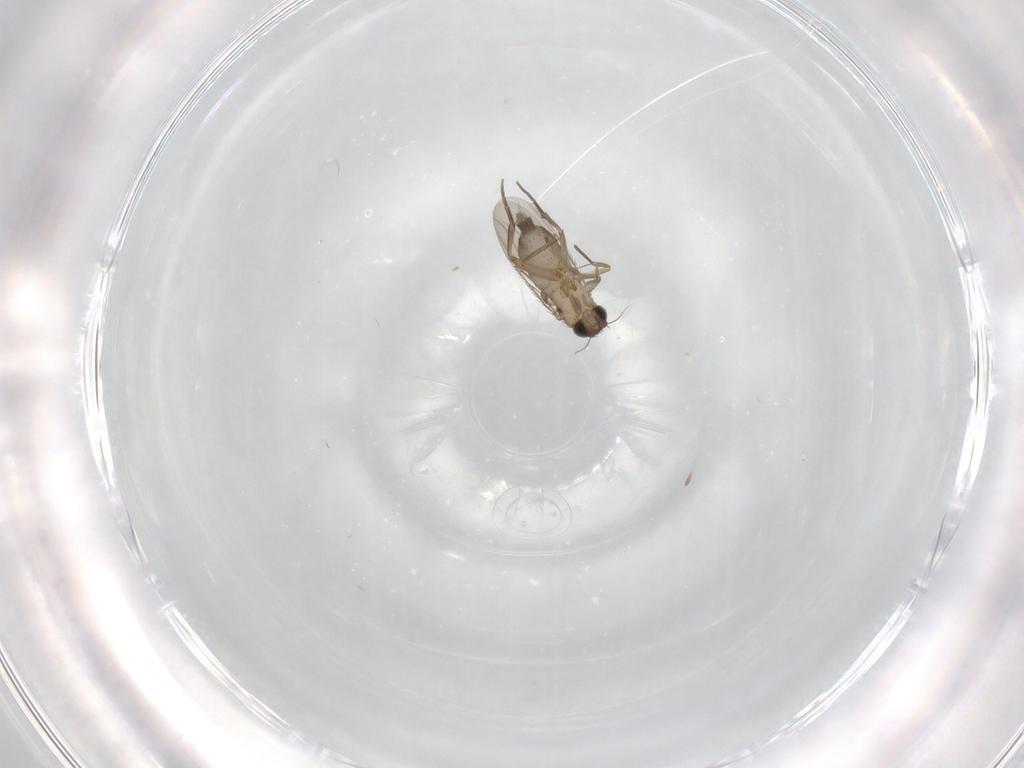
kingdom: Animalia
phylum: Arthropoda
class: Insecta
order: Diptera
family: Phoridae
